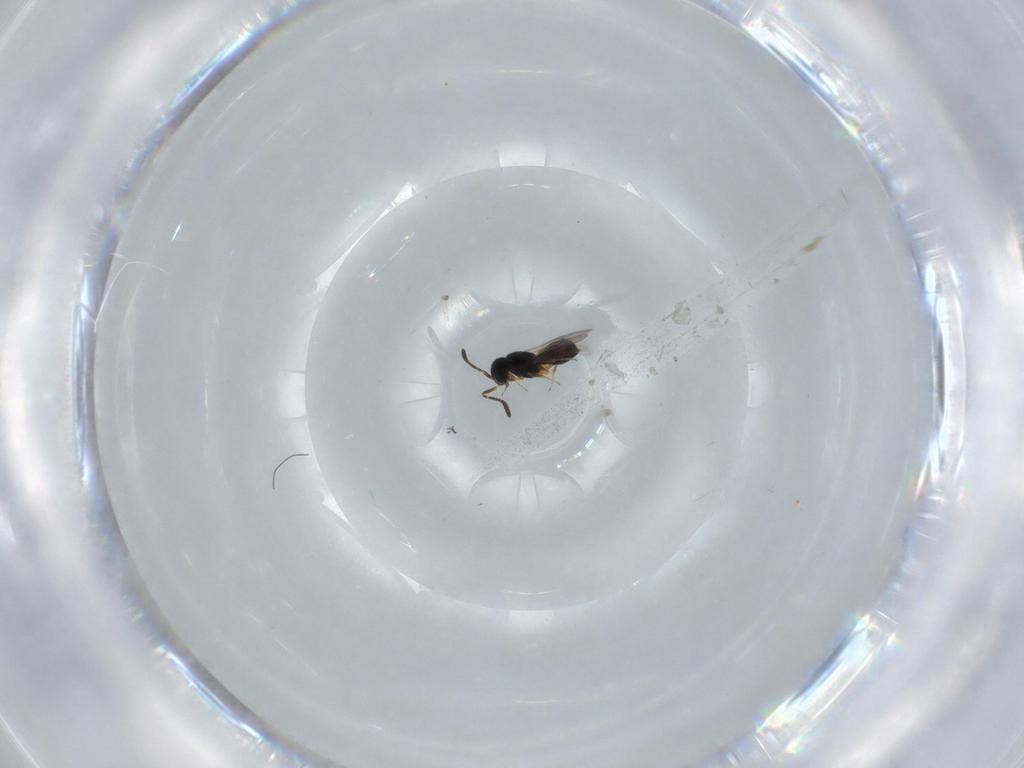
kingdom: Animalia
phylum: Arthropoda
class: Insecta
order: Hymenoptera
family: Scelionidae
